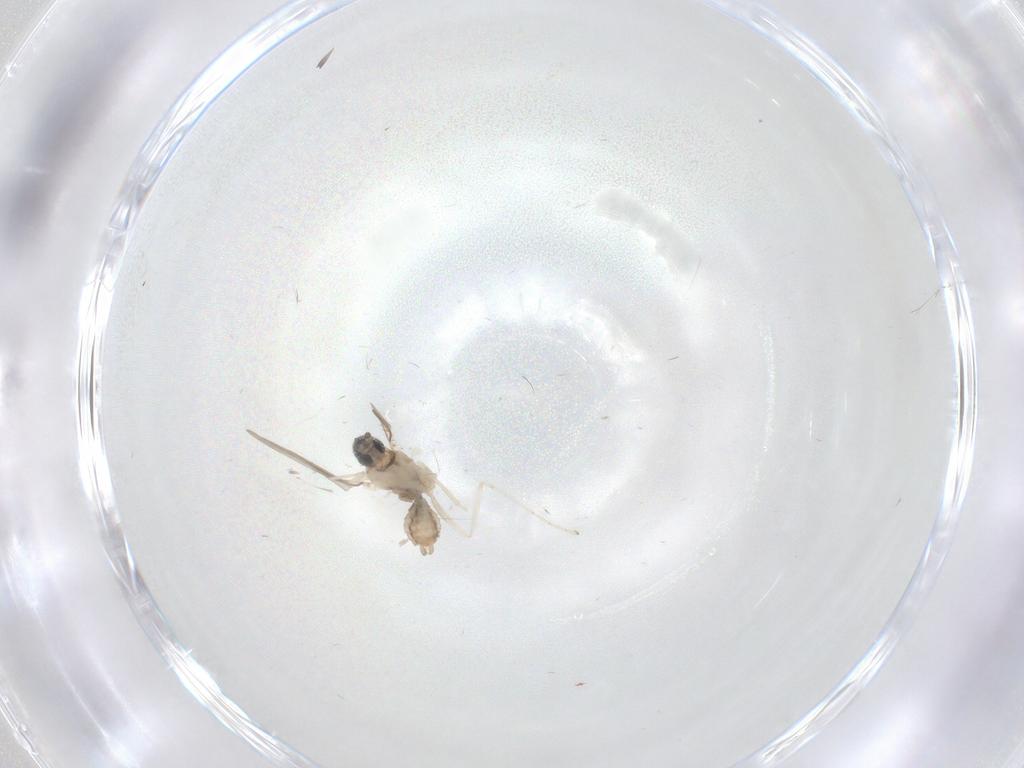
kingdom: Animalia
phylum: Arthropoda
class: Insecta
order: Diptera
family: Cecidomyiidae
